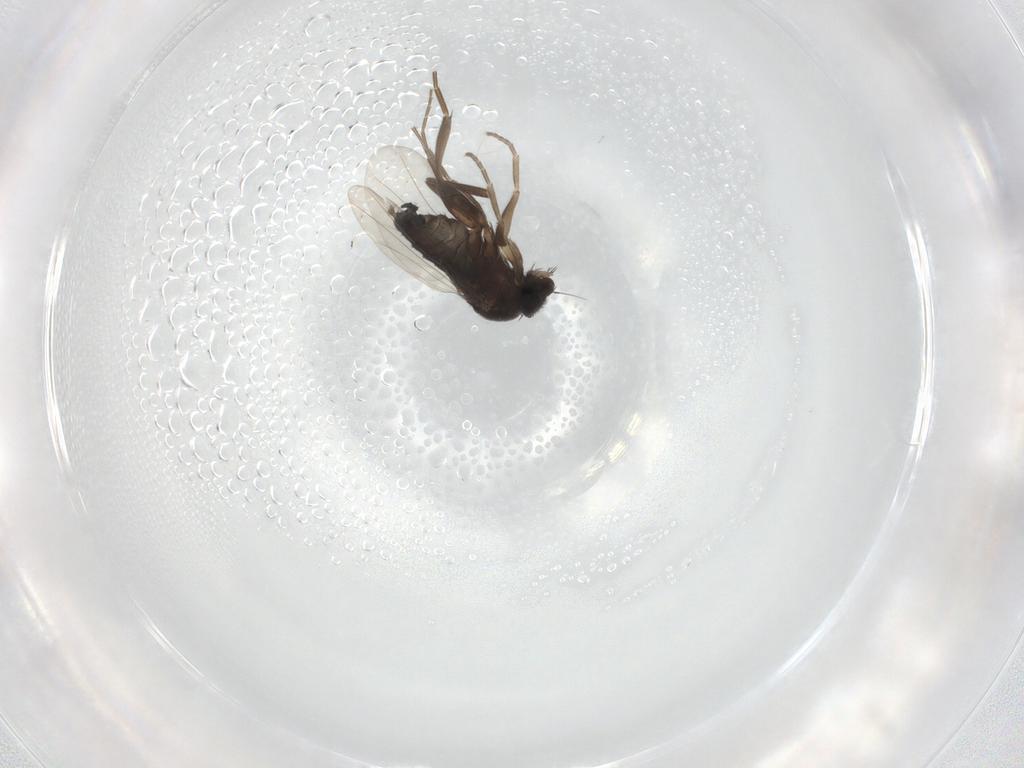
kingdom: Animalia
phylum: Arthropoda
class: Insecta
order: Diptera
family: Phoridae
